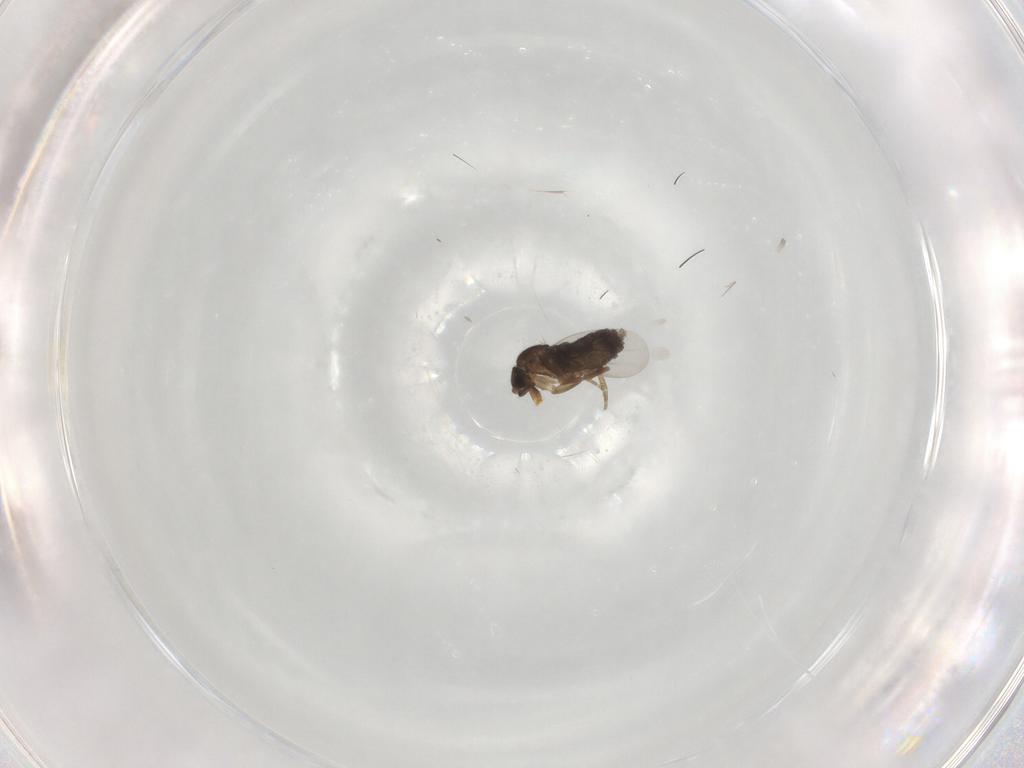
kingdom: Animalia
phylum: Arthropoda
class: Insecta
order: Diptera
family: Phoridae
